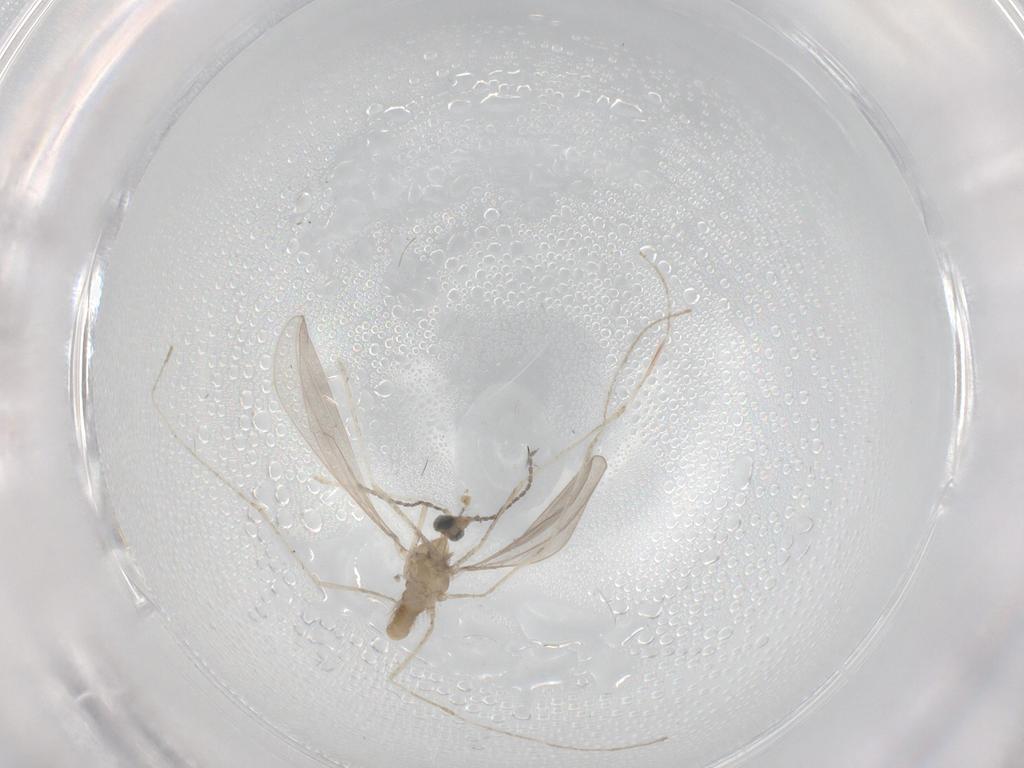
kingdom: Animalia
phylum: Arthropoda
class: Insecta
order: Diptera
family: Cecidomyiidae
